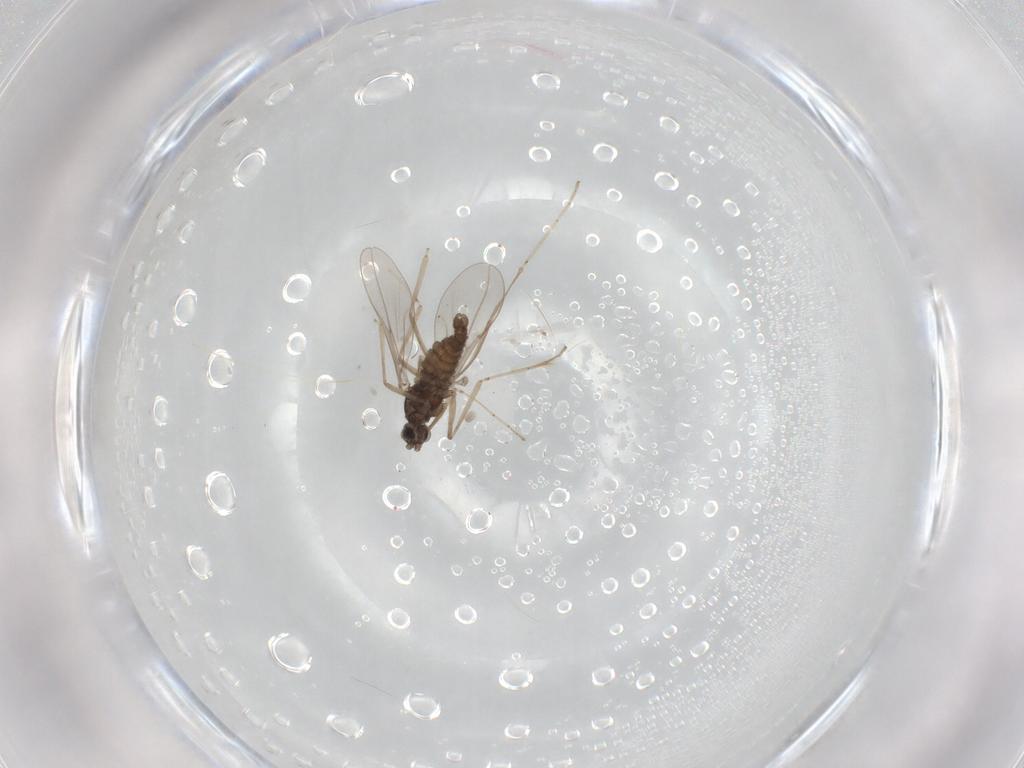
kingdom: Animalia
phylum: Arthropoda
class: Insecta
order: Diptera
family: Cecidomyiidae
